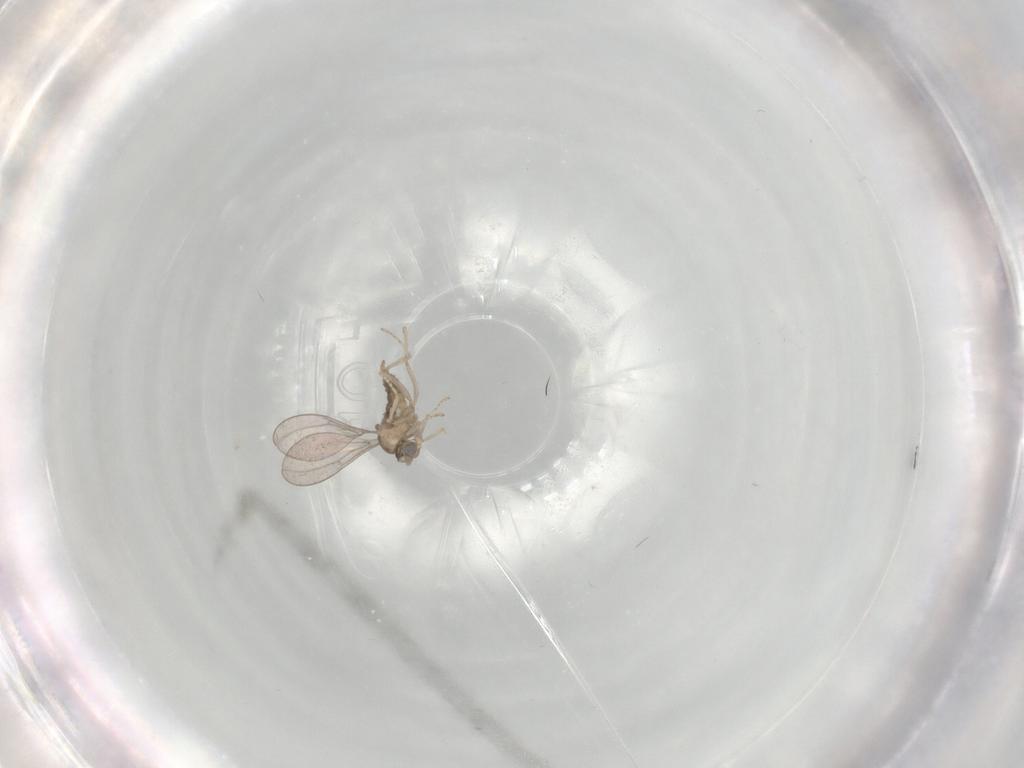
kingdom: Animalia
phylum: Arthropoda
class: Insecta
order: Diptera
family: Cecidomyiidae
